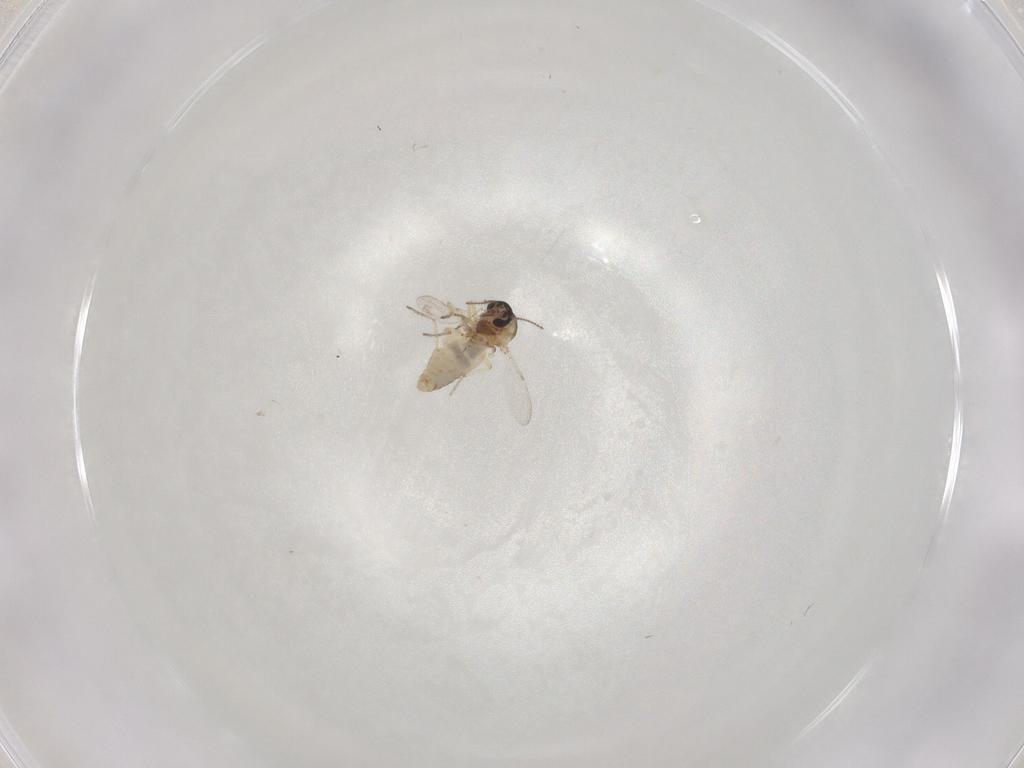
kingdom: Animalia
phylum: Arthropoda
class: Insecta
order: Diptera
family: Ceratopogonidae
